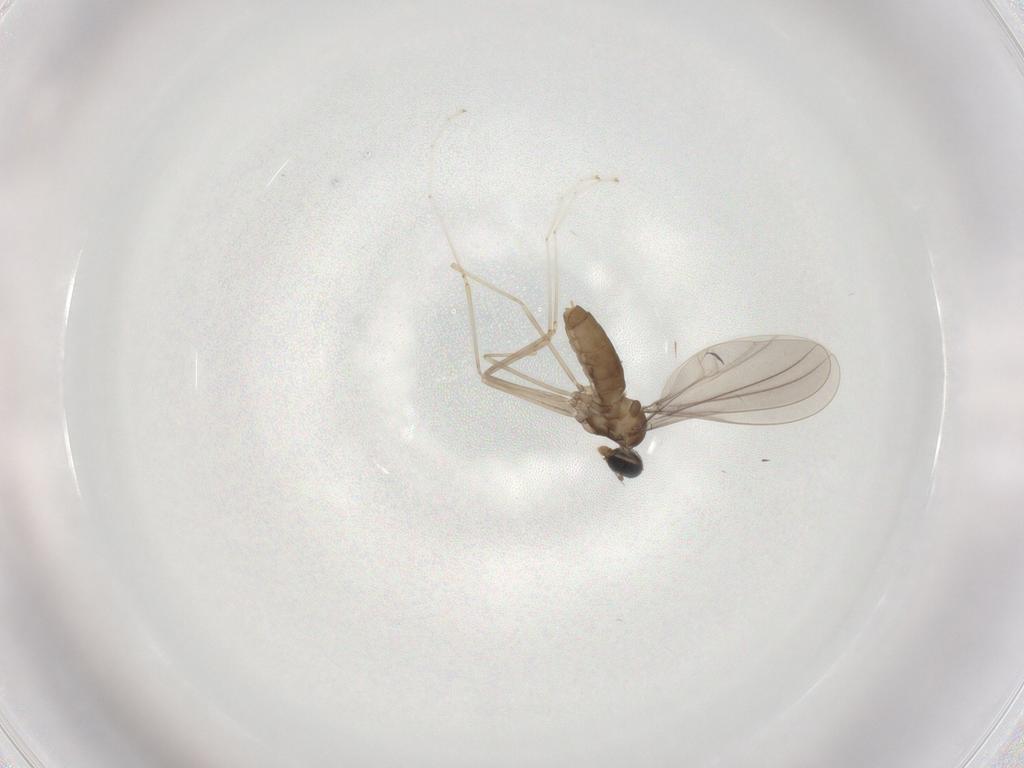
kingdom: Animalia
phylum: Arthropoda
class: Insecta
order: Diptera
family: Cecidomyiidae
